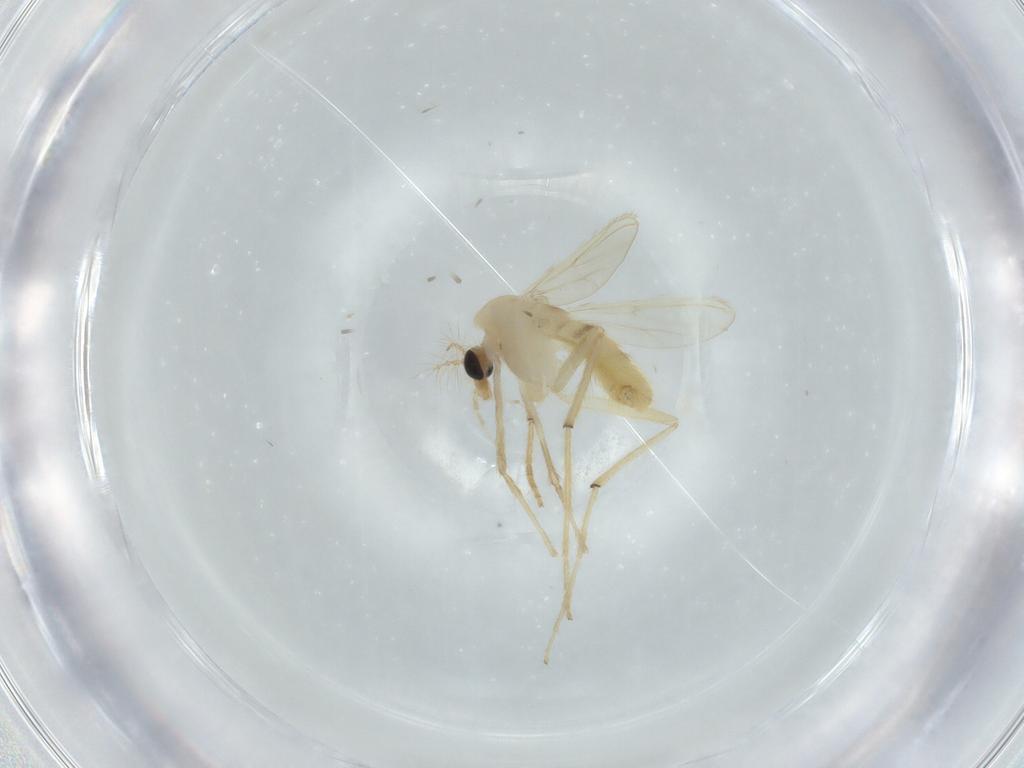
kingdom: Animalia
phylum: Arthropoda
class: Insecta
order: Diptera
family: Chironomidae
